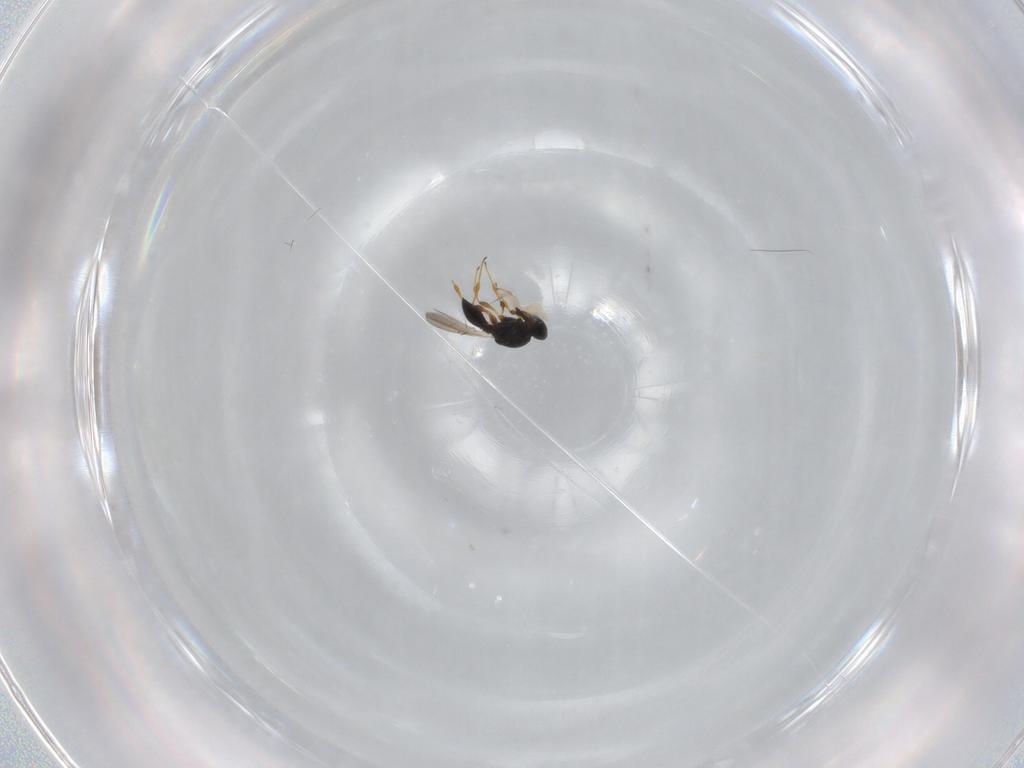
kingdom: Animalia
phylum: Arthropoda
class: Insecta
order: Hymenoptera
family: Platygastridae
